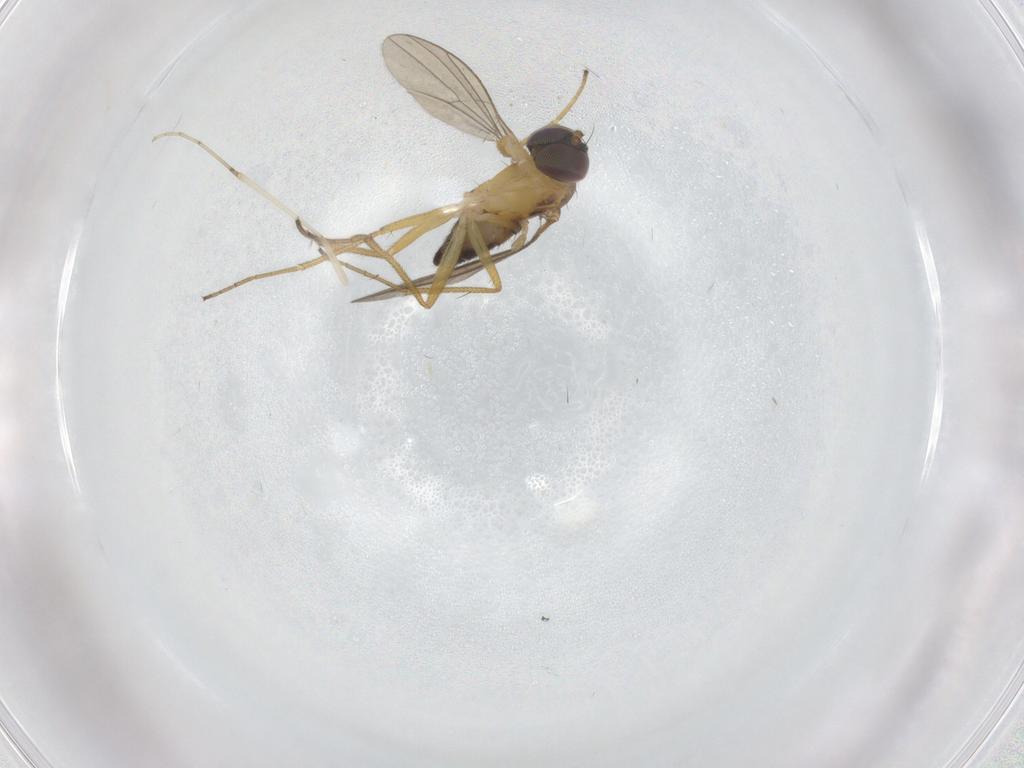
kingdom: Animalia
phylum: Arthropoda
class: Insecta
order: Diptera
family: Dolichopodidae
